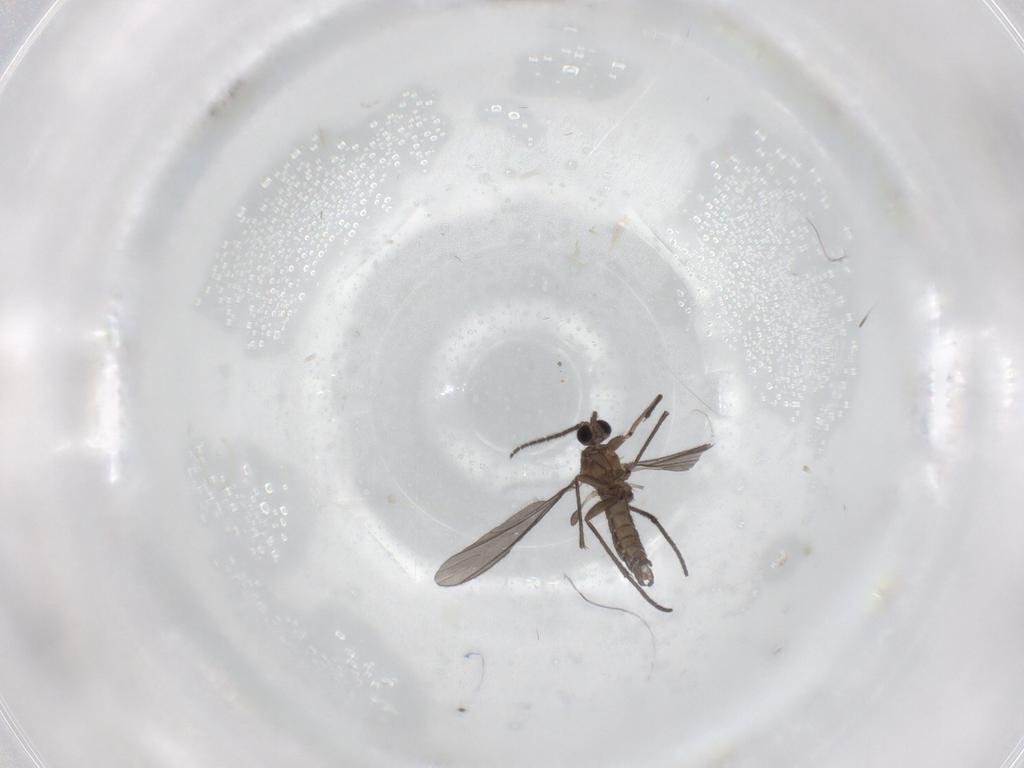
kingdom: Animalia
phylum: Arthropoda
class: Insecta
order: Diptera
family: Sciaridae
